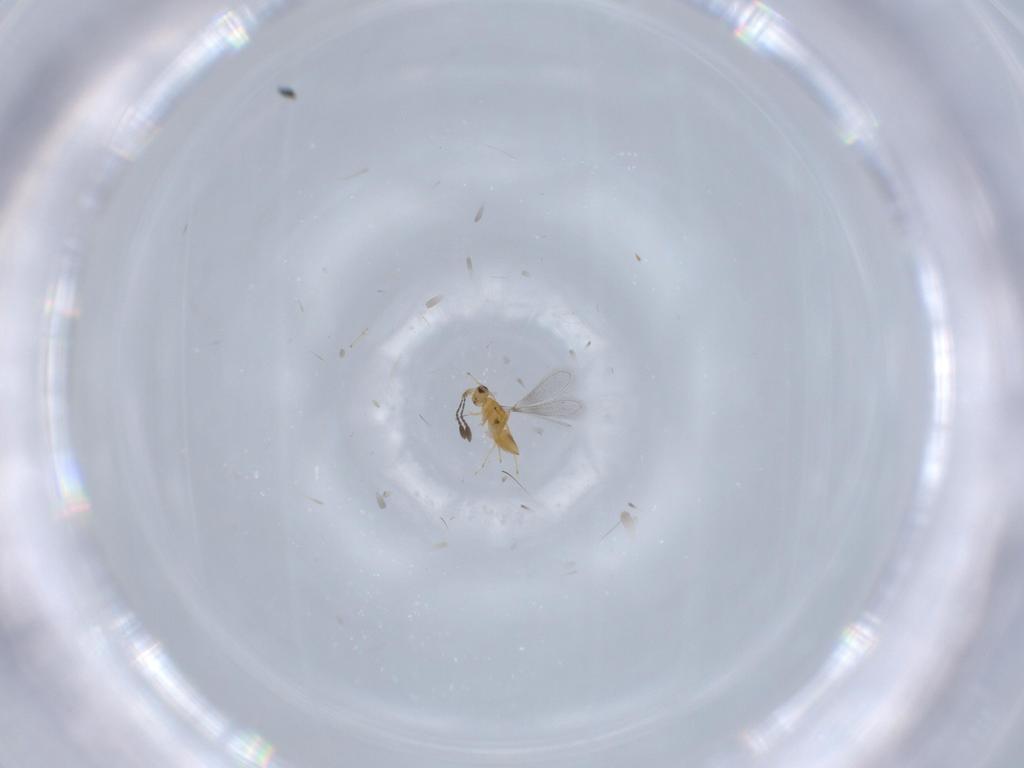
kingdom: Animalia
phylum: Arthropoda
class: Insecta
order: Hymenoptera
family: Mymaridae
